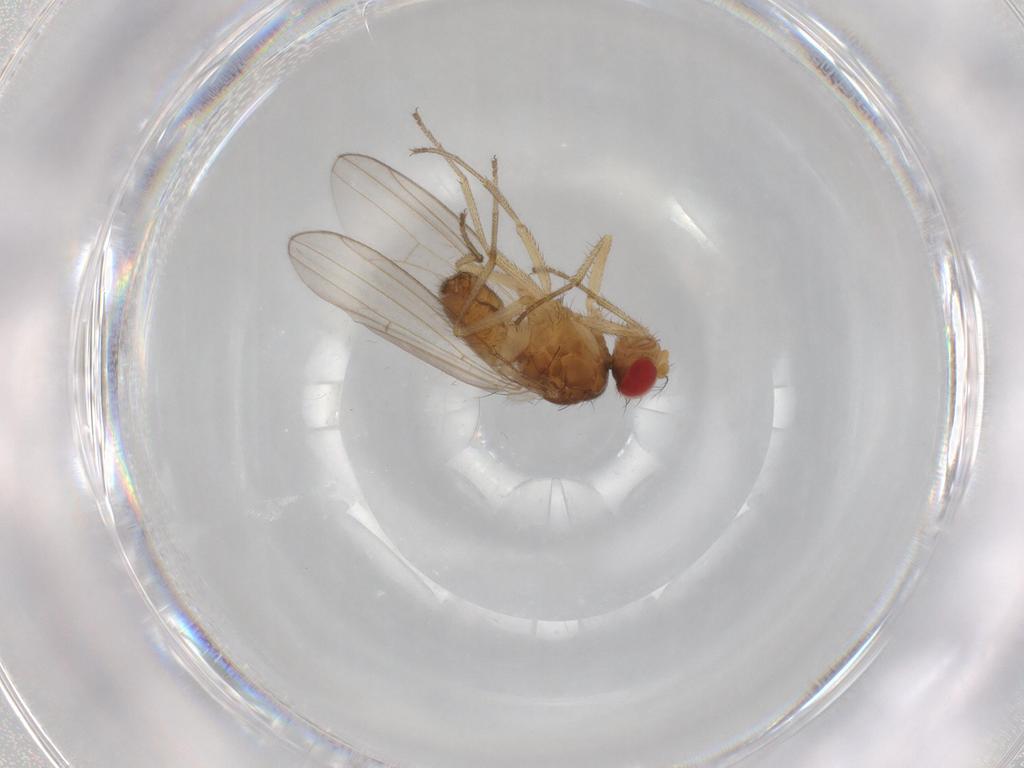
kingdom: Animalia
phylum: Arthropoda
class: Insecta
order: Diptera
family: Drosophilidae
